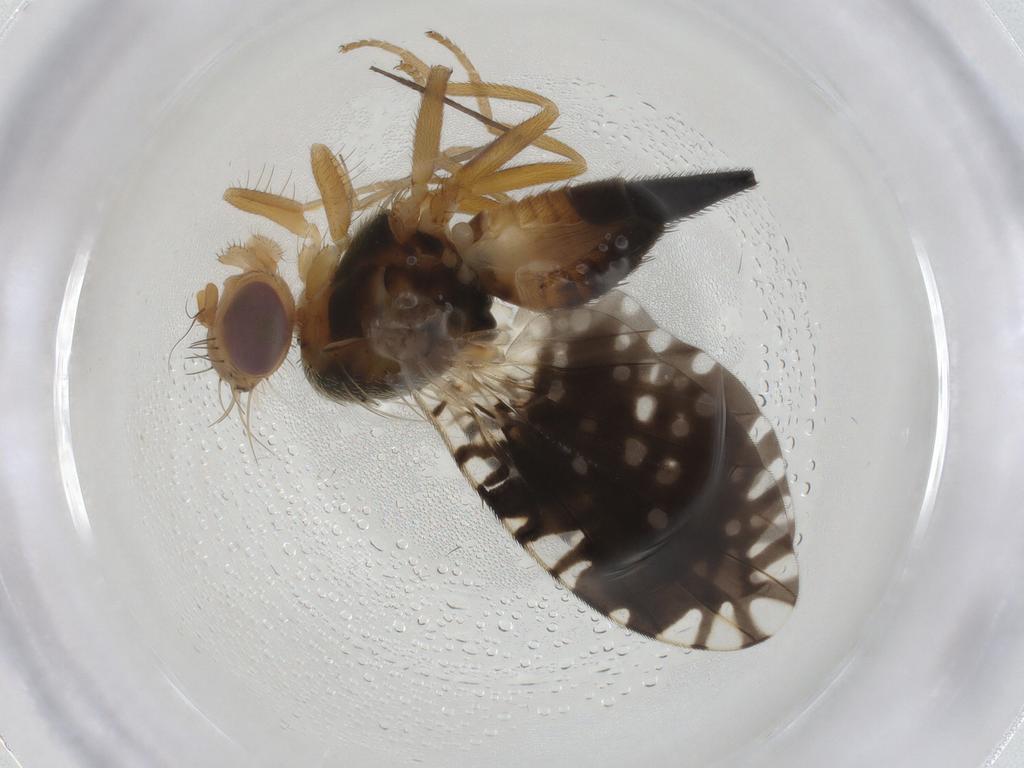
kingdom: Animalia
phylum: Arthropoda
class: Insecta
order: Diptera
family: Tephritidae
